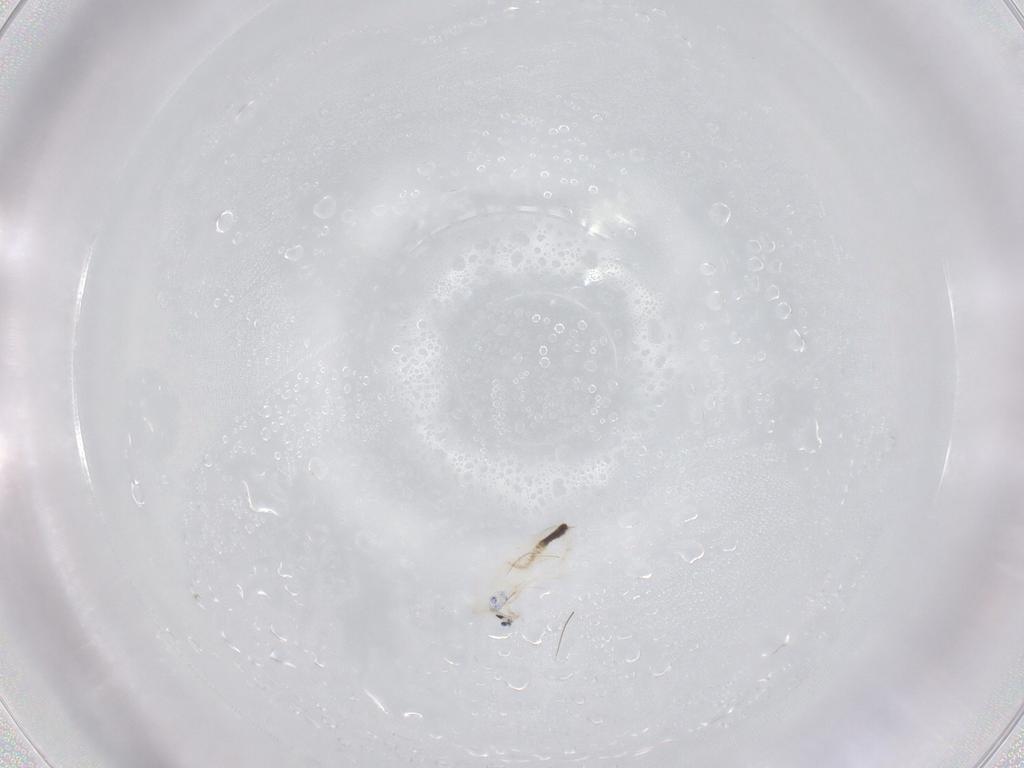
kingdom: Animalia
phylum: Arthropoda
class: Collembola
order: Entomobryomorpha
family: Entomobryidae
